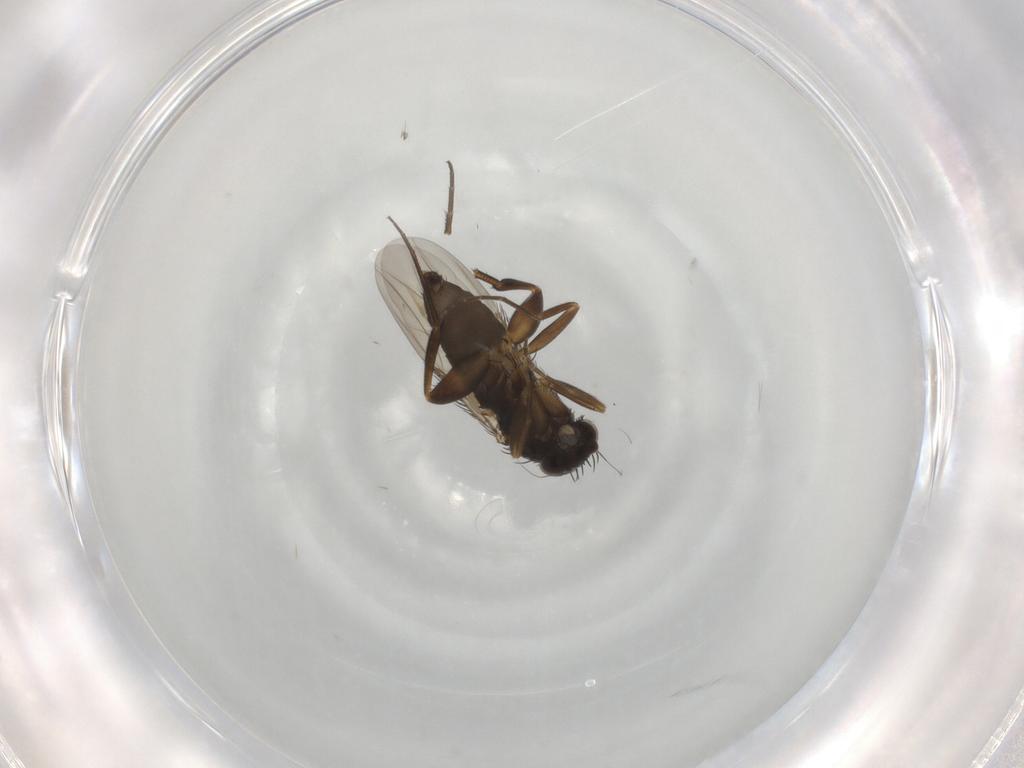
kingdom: Animalia
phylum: Arthropoda
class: Insecta
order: Diptera
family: Phoridae
